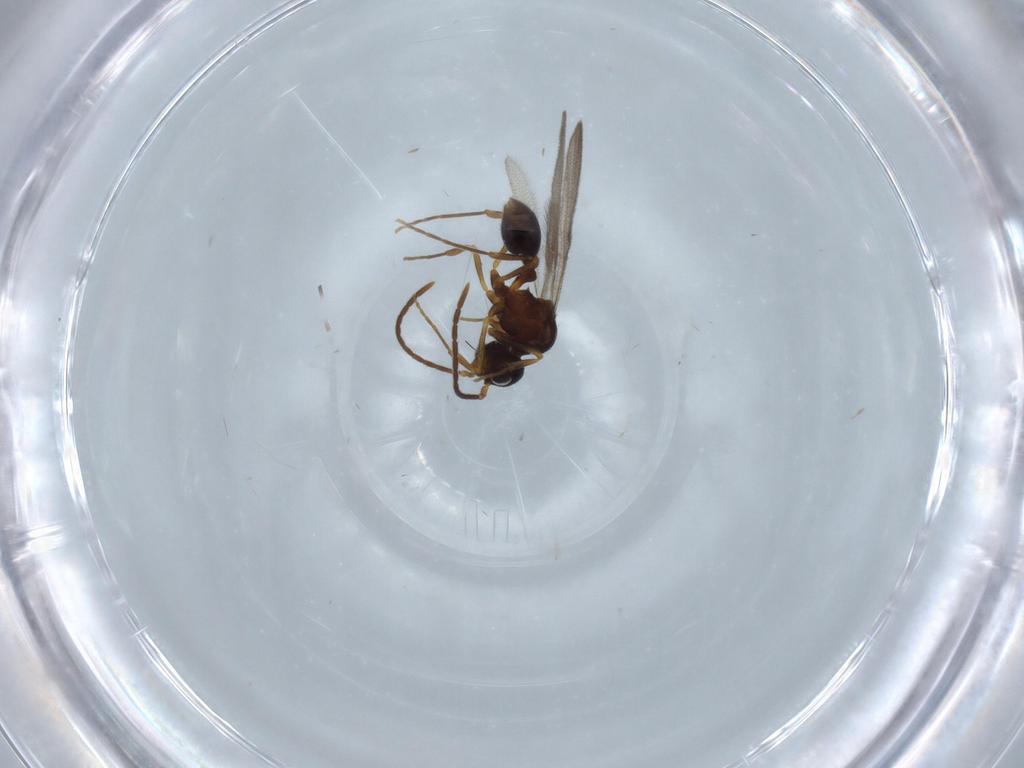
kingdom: Animalia
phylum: Arthropoda
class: Insecta
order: Hymenoptera
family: Formicidae
